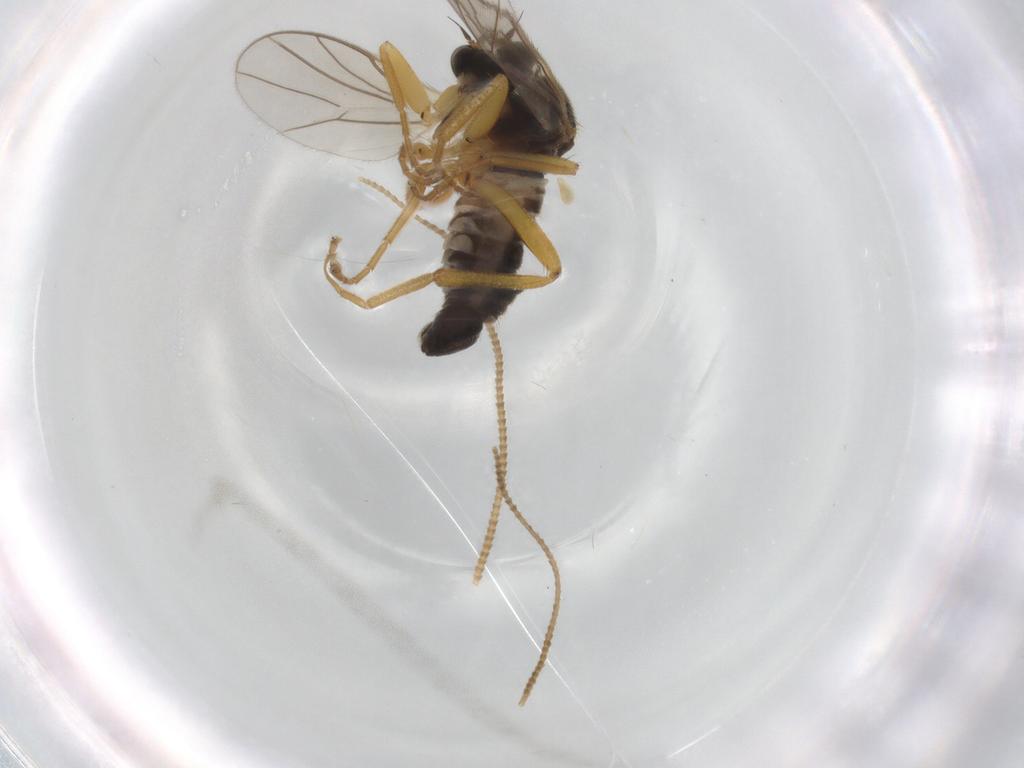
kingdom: Animalia
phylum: Arthropoda
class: Insecta
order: Diptera
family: Hybotidae
